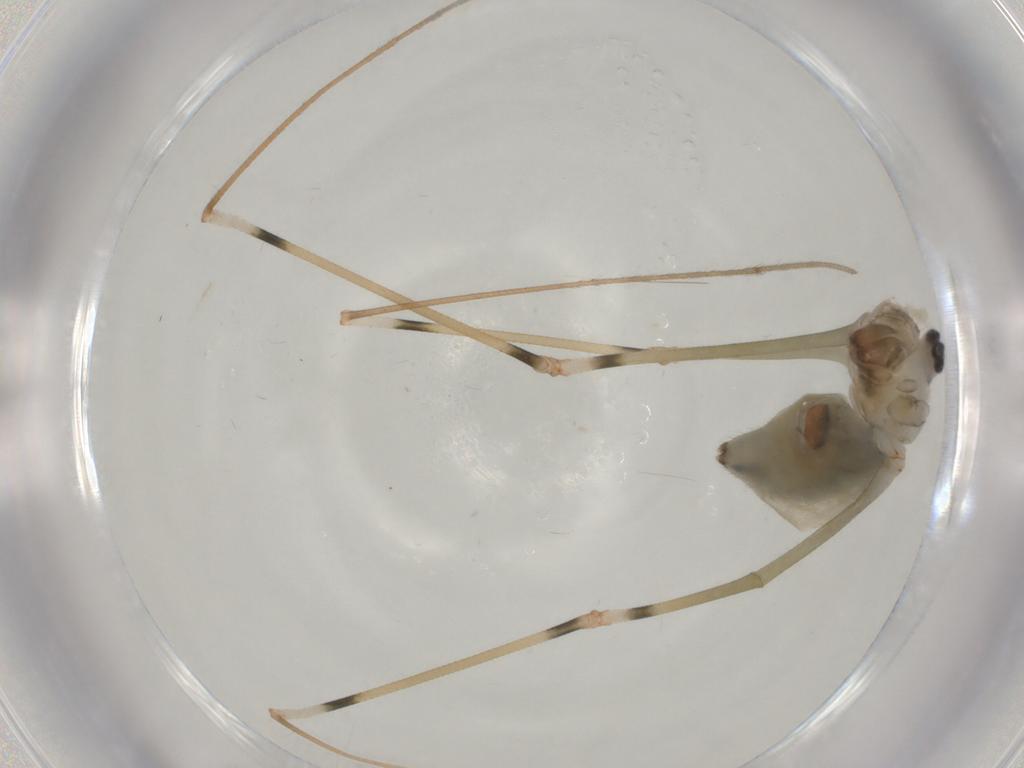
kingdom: Animalia
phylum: Arthropoda
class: Arachnida
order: Araneae
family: Pholcidae
